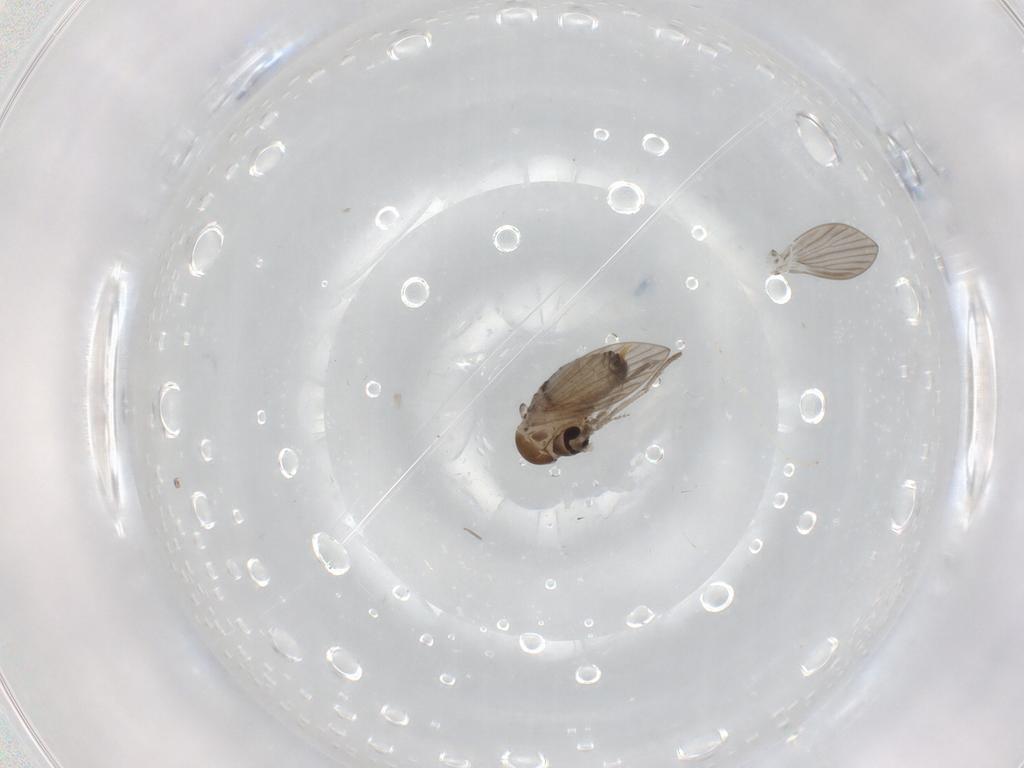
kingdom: Animalia
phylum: Arthropoda
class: Insecta
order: Diptera
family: Psychodidae
